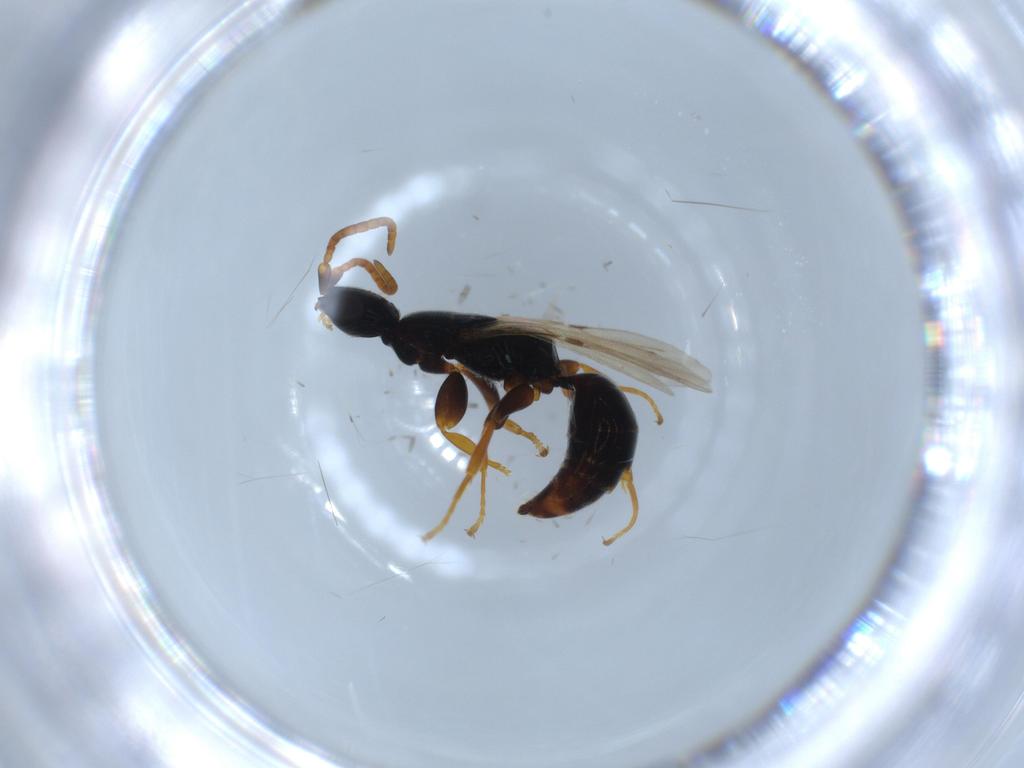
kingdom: Animalia
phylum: Arthropoda
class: Insecta
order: Hymenoptera
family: Bethylidae
